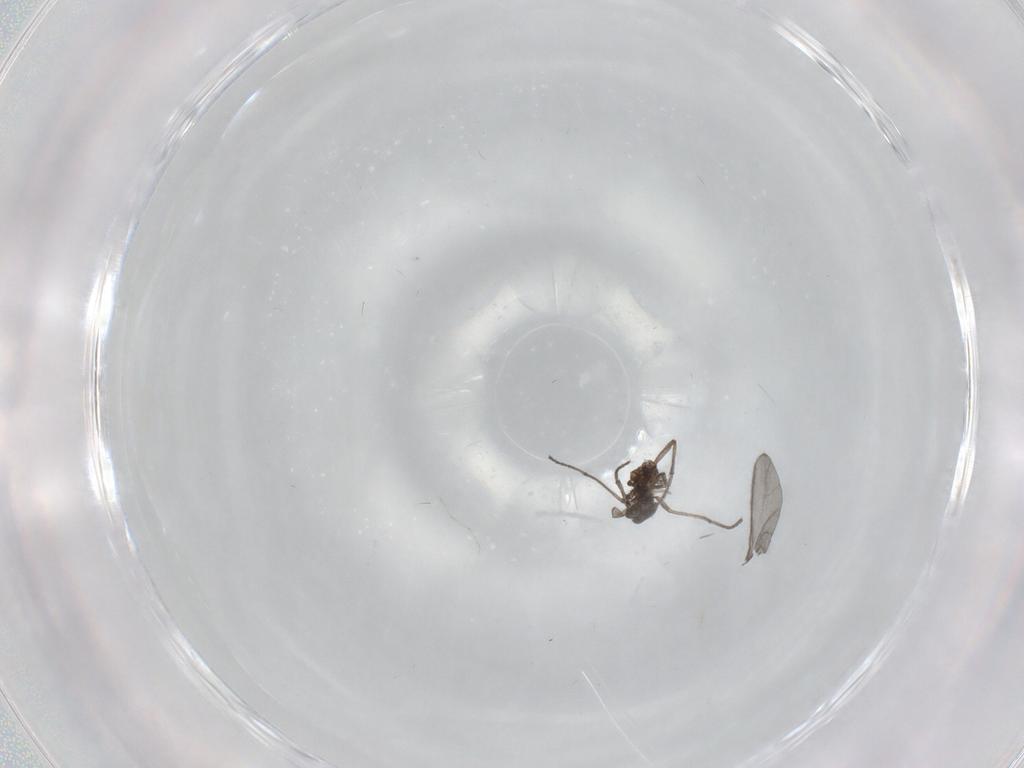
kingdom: Animalia
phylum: Arthropoda
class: Insecta
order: Diptera
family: Sciaridae
